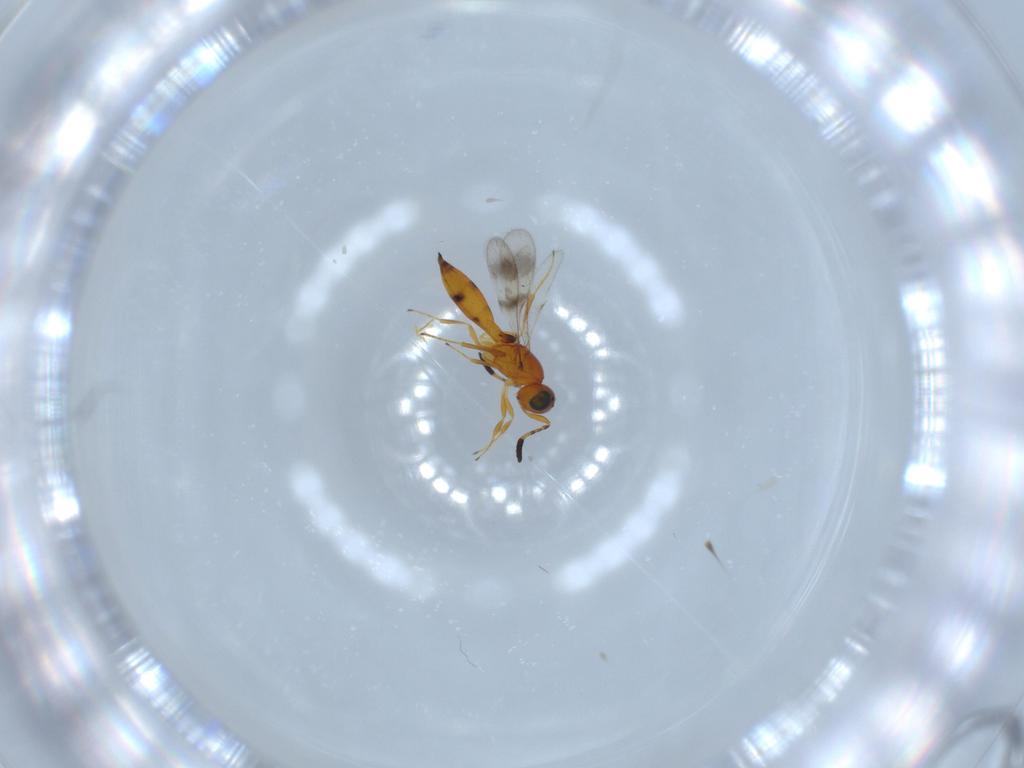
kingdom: Animalia
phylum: Arthropoda
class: Insecta
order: Hymenoptera
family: Scelionidae
